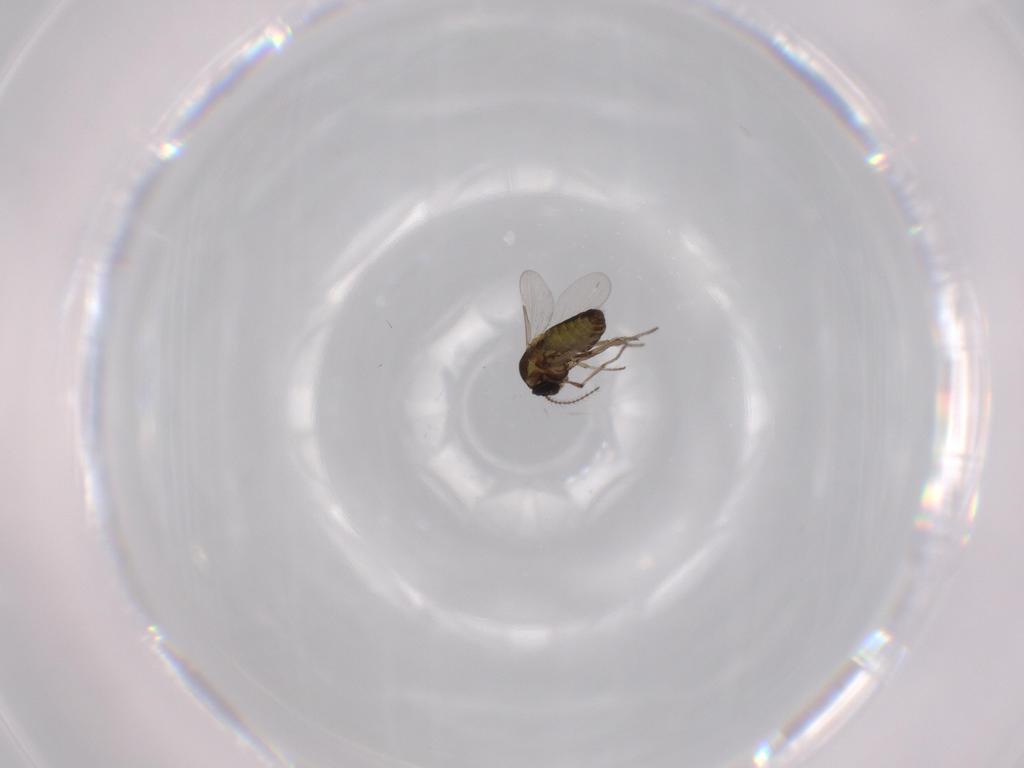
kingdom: Animalia
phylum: Arthropoda
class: Insecta
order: Diptera
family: Ceratopogonidae
